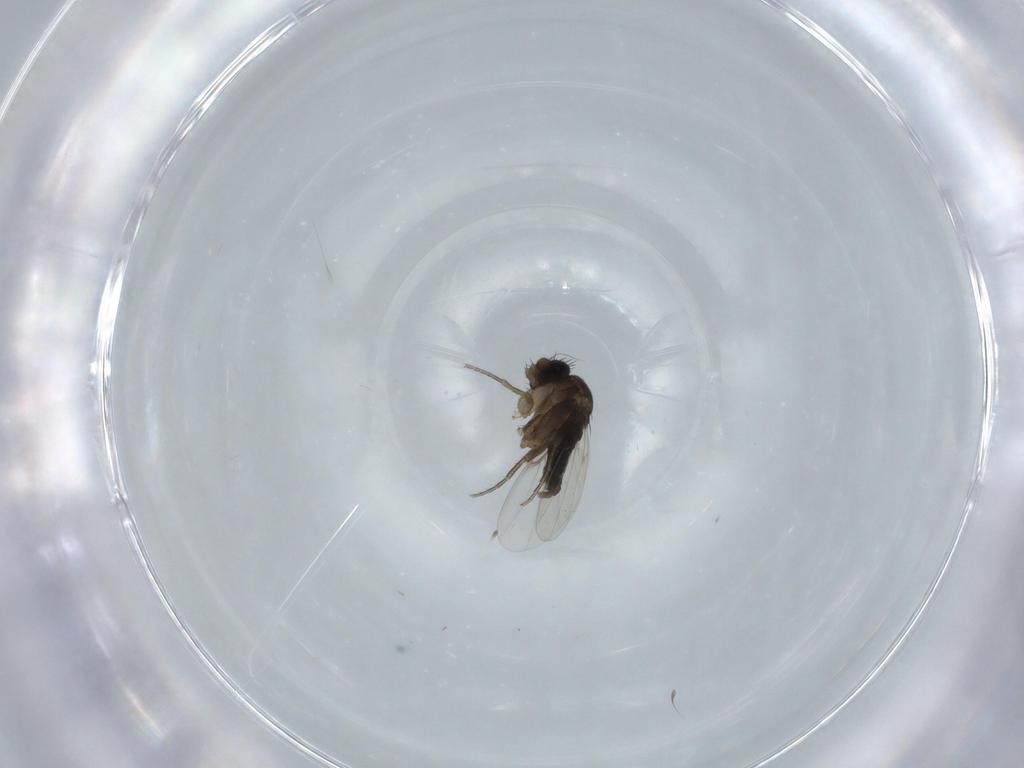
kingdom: Animalia
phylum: Arthropoda
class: Insecta
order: Diptera
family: Phoridae
